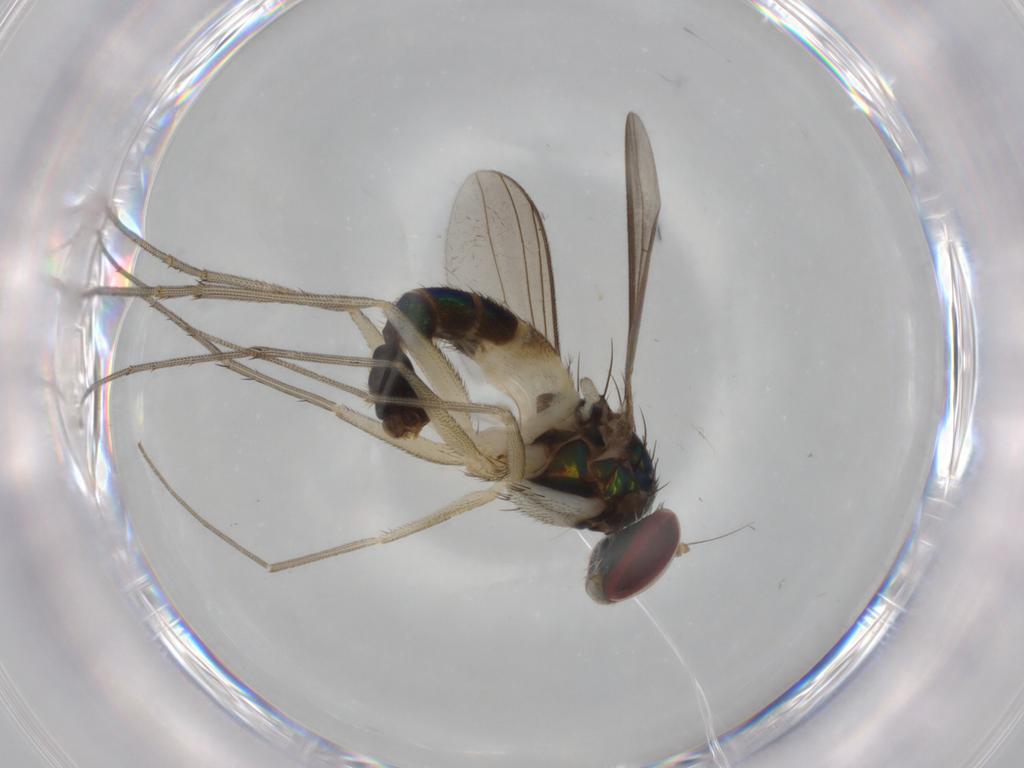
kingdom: Animalia
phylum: Arthropoda
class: Insecta
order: Diptera
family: Dolichopodidae
